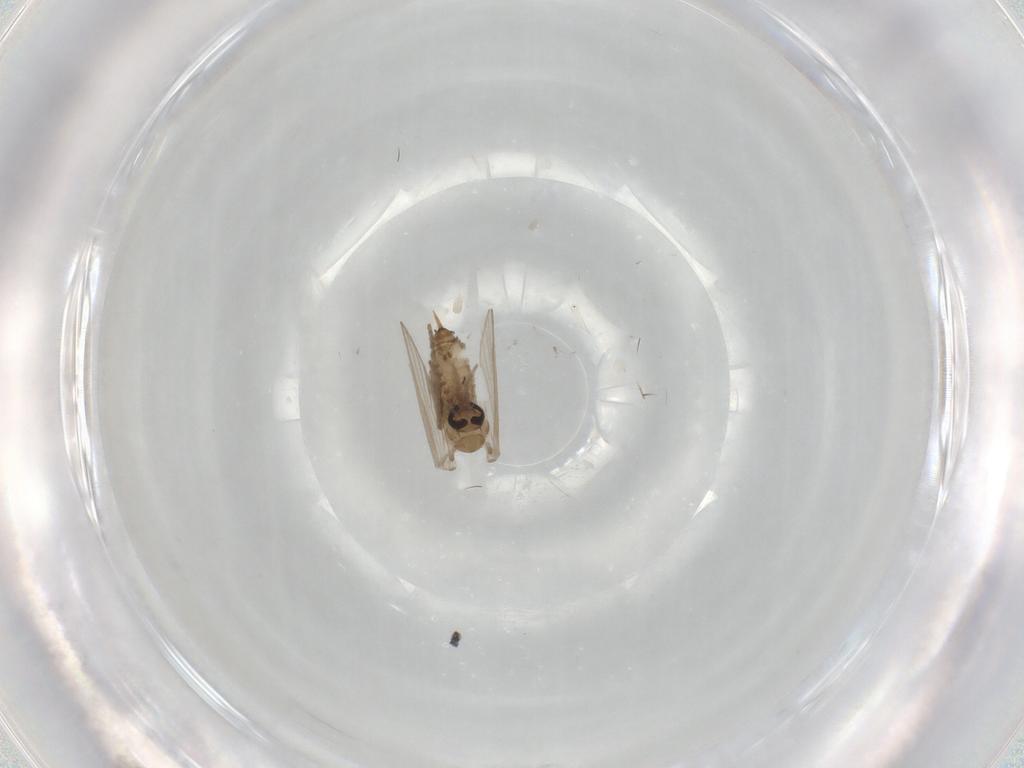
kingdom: Animalia
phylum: Arthropoda
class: Insecta
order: Diptera
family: Psychodidae
